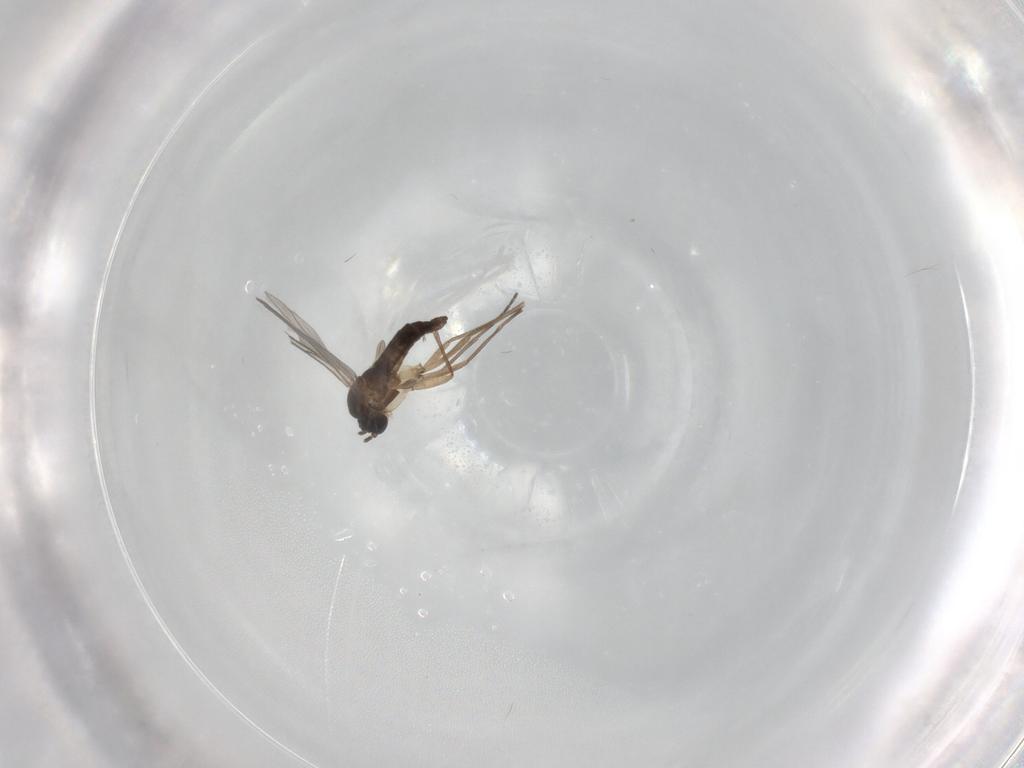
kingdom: Animalia
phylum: Arthropoda
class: Insecta
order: Diptera
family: Sciaridae
